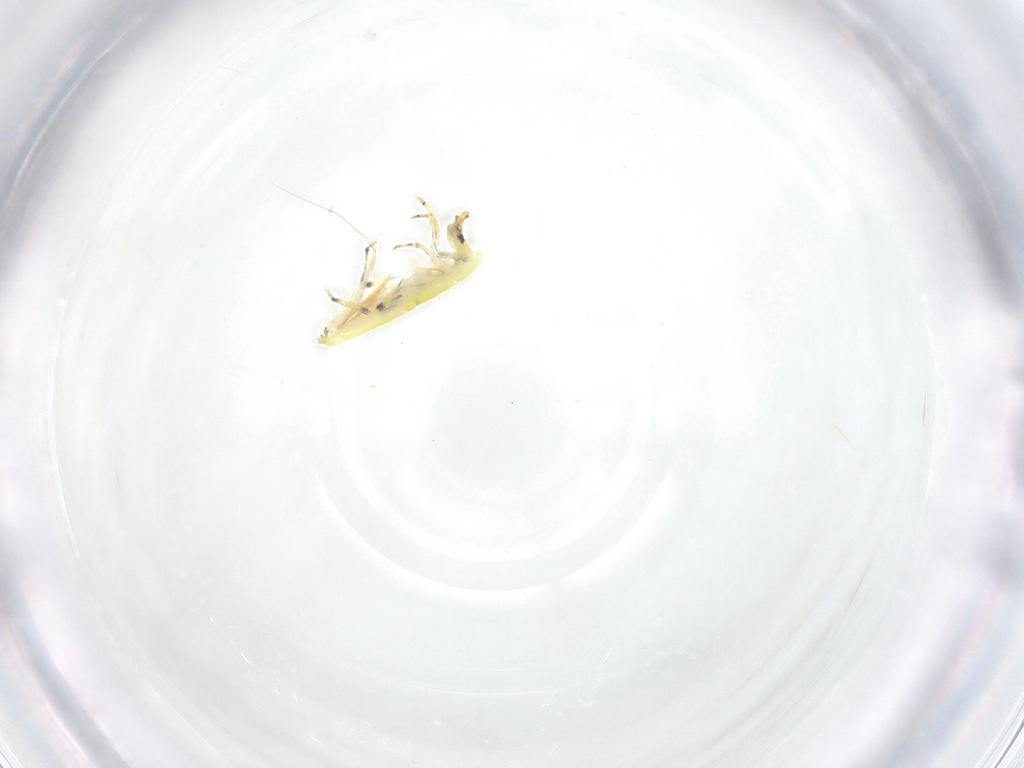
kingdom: Animalia
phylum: Arthropoda
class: Collembola
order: Entomobryomorpha
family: Entomobryidae
